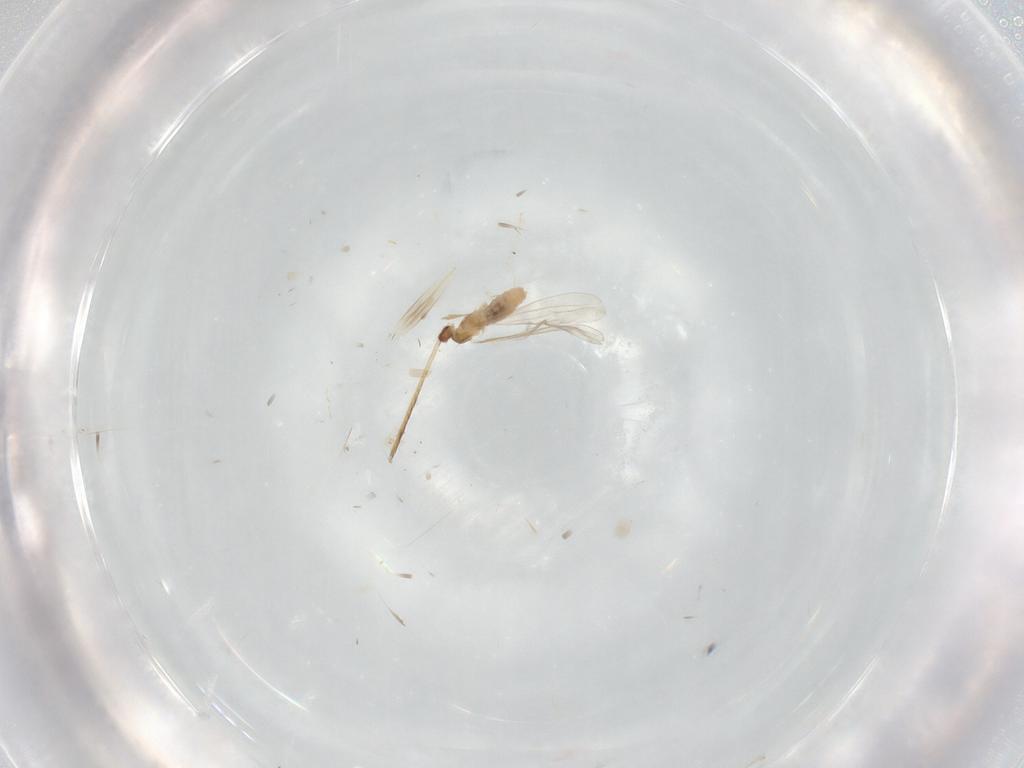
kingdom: Animalia
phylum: Arthropoda
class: Insecta
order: Diptera
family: Cecidomyiidae
